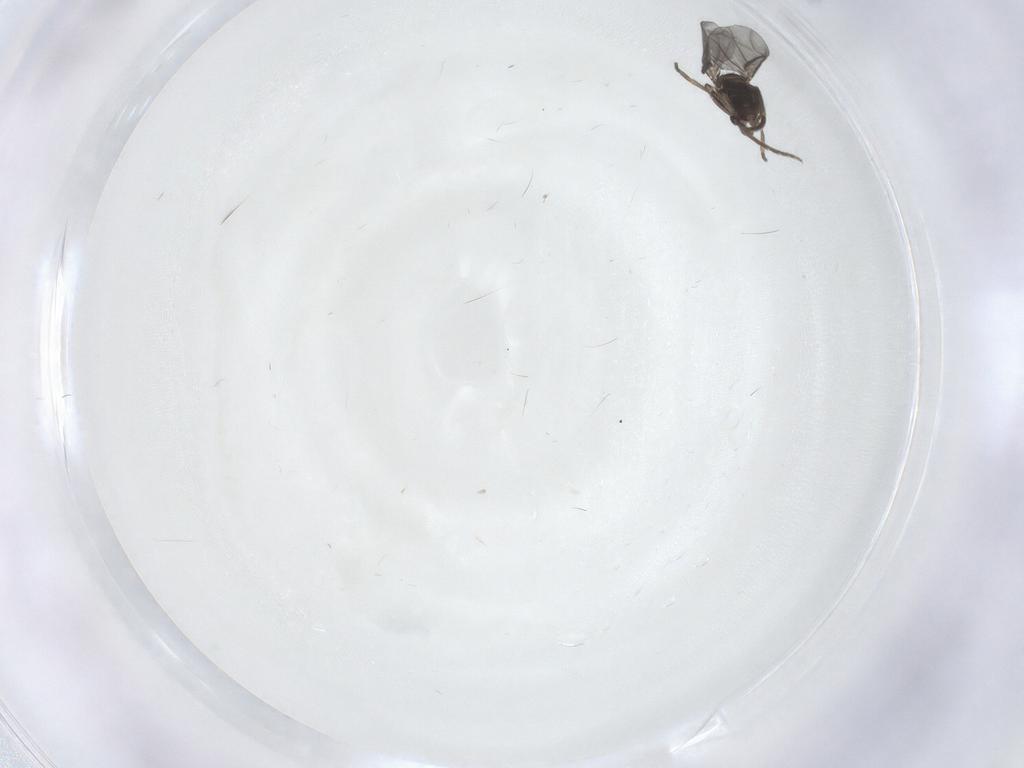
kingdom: Animalia
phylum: Arthropoda
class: Insecta
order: Diptera
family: Phoridae
